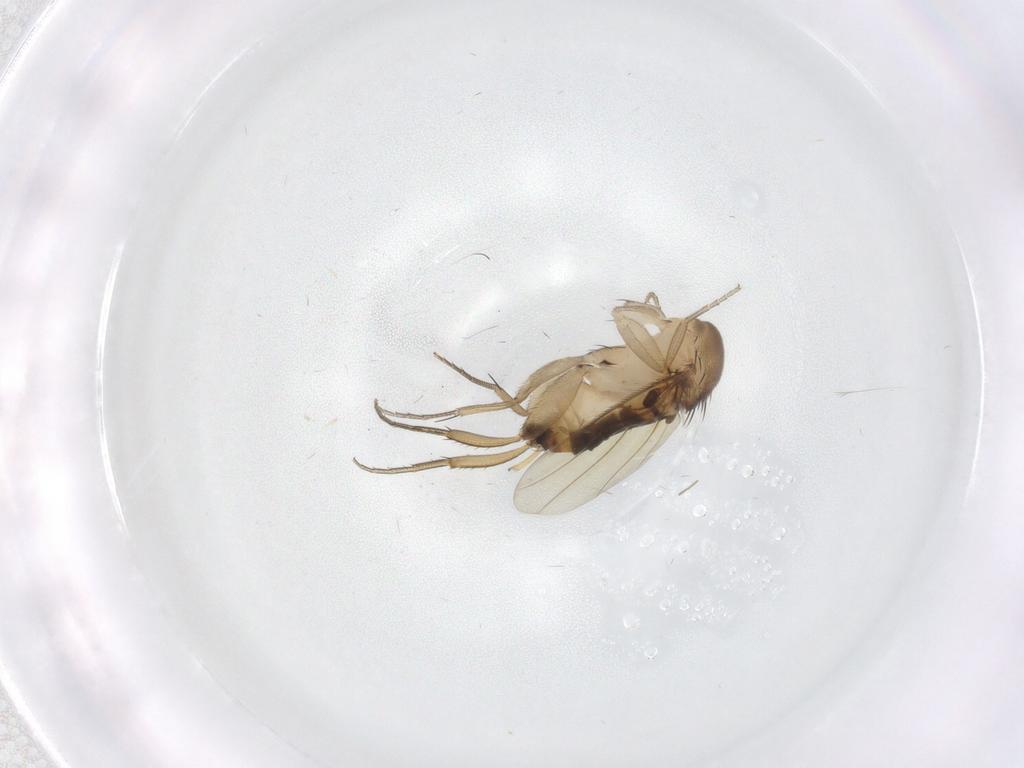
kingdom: Animalia
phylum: Arthropoda
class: Insecta
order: Diptera
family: Phoridae
